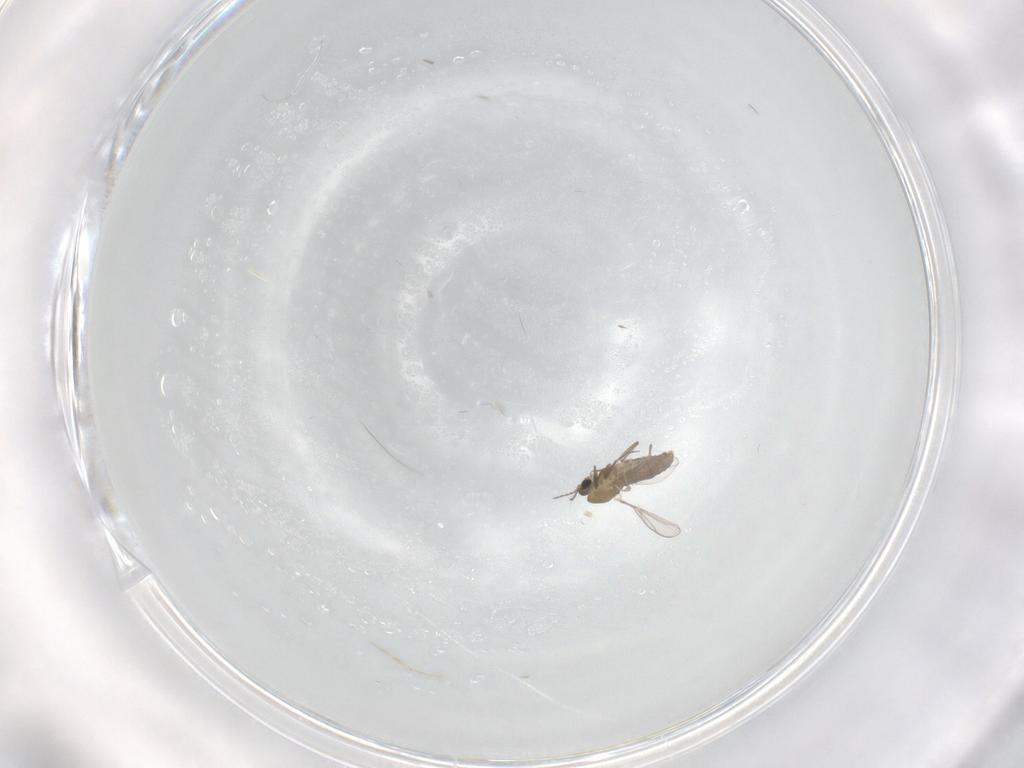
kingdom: Animalia
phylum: Arthropoda
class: Insecta
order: Diptera
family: Chironomidae
